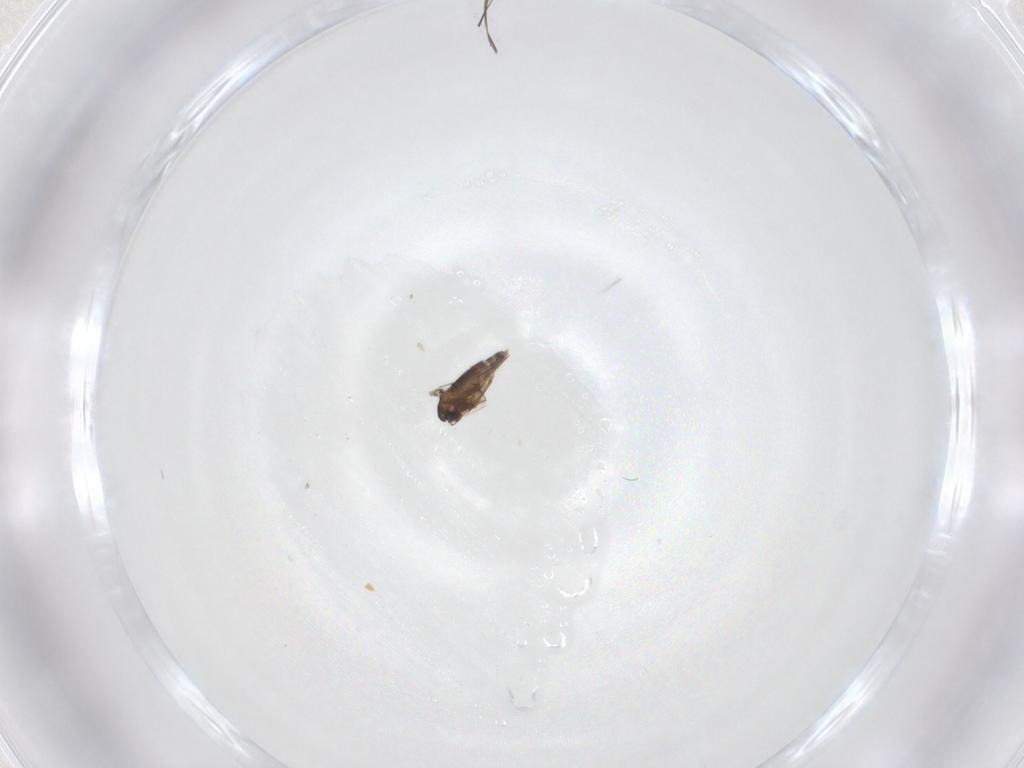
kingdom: Animalia
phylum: Arthropoda
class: Insecta
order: Diptera
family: Chironomidae
